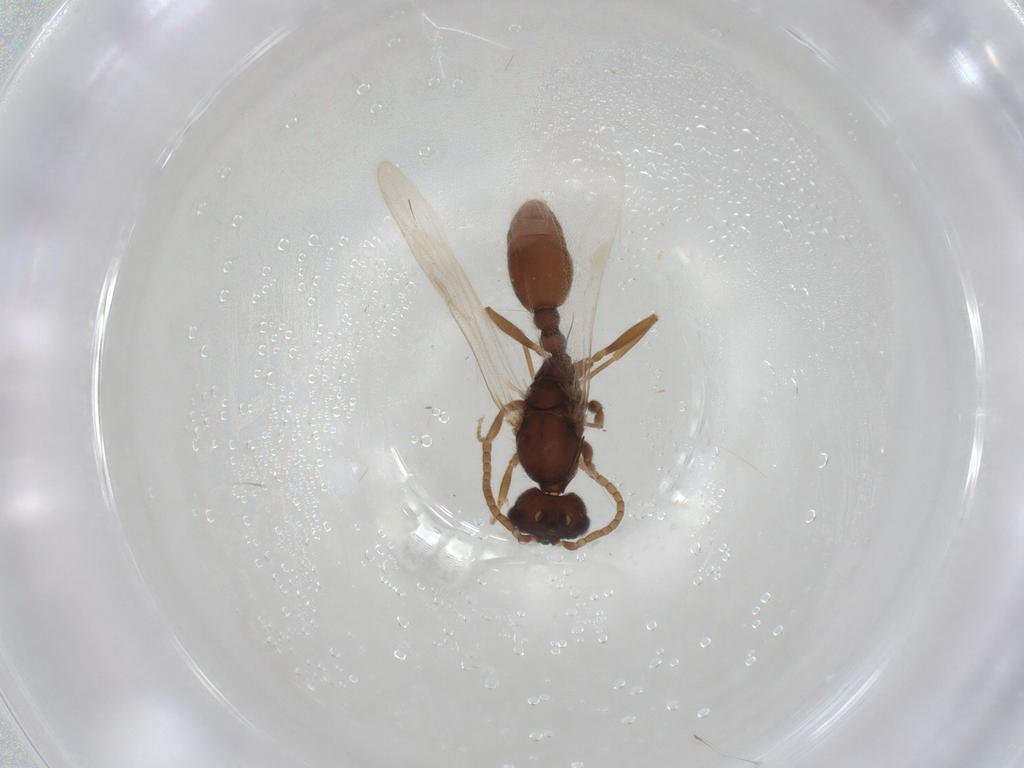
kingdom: Animalia
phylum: Arthropoda
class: Insecta
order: Hymenoptera
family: Formicidae
